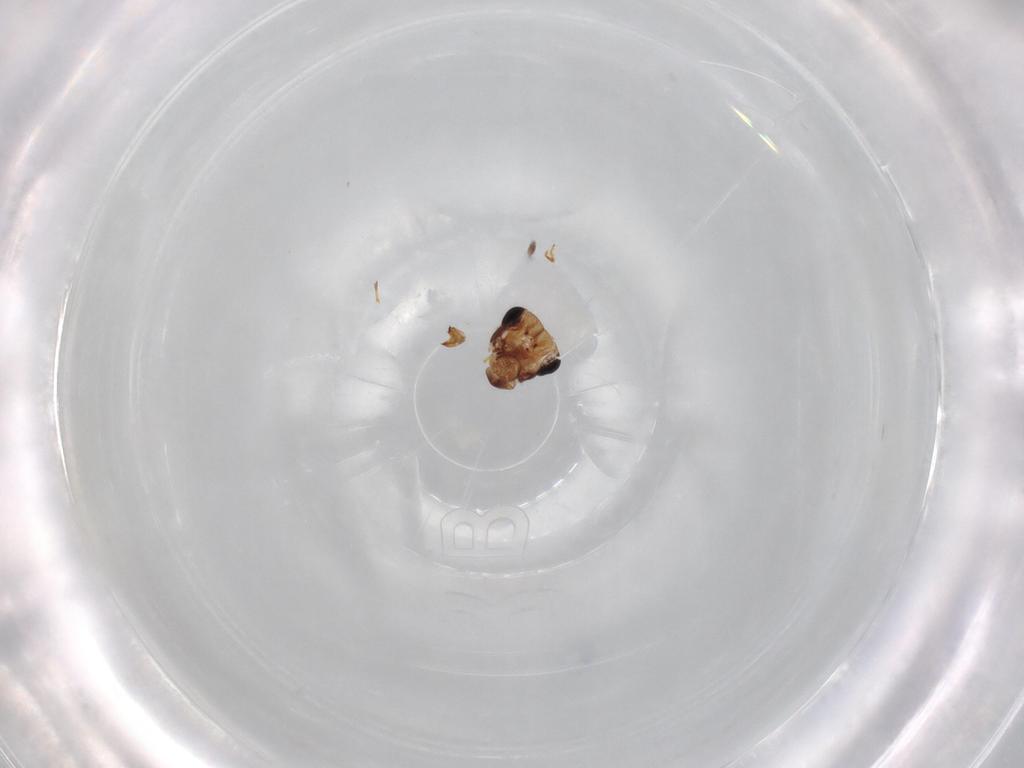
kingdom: Animalia
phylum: Arthropoda
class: Insecta
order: Psocodea
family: Lepidopsocidae
